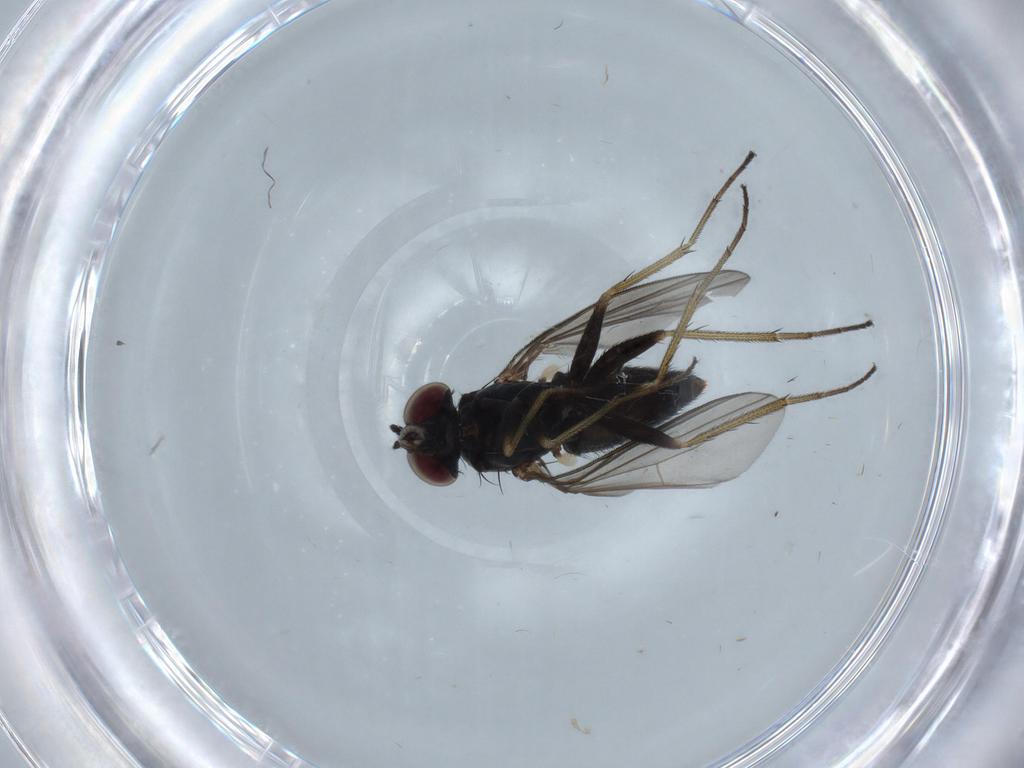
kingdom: Animalia
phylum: Arthropoda
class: Insecta
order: Diptera
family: Dolichopodidae
